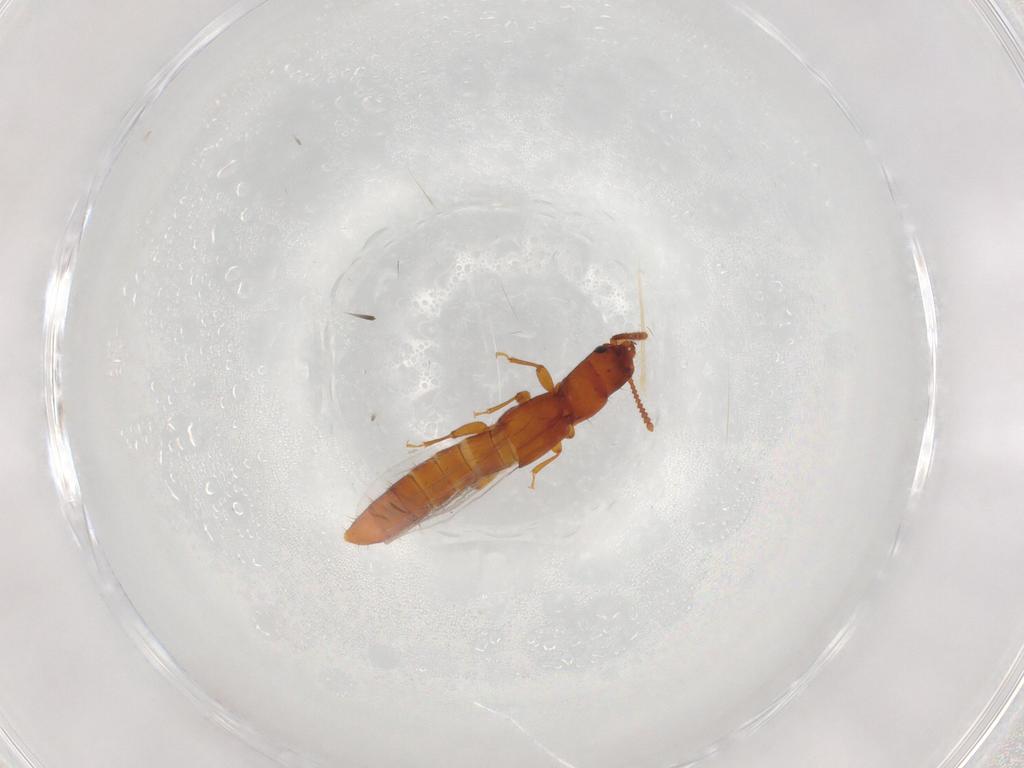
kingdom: Animalia
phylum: Arthropoda
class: Insecta
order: Coleoptera
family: Staphylinidae
